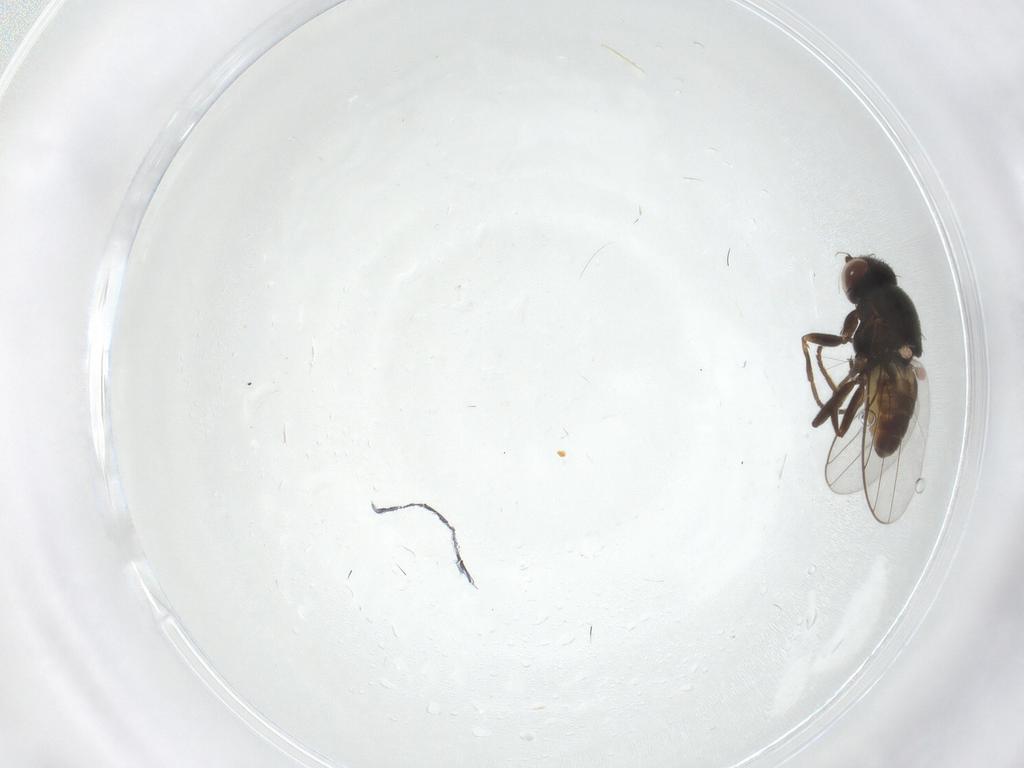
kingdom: Animalia
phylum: Arthropoda
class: Insecta
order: Diptera
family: Chloropidae
